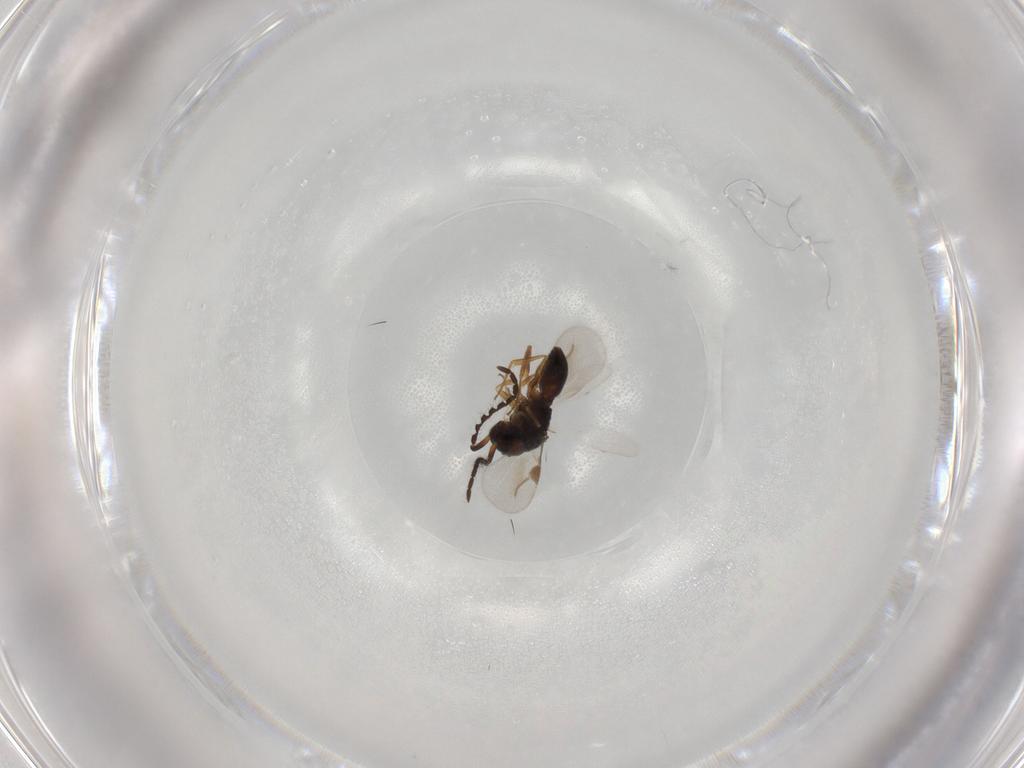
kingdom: Animalia
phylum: Arthropoda
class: Insecta
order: Hymenoptera
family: Megaspilidae
